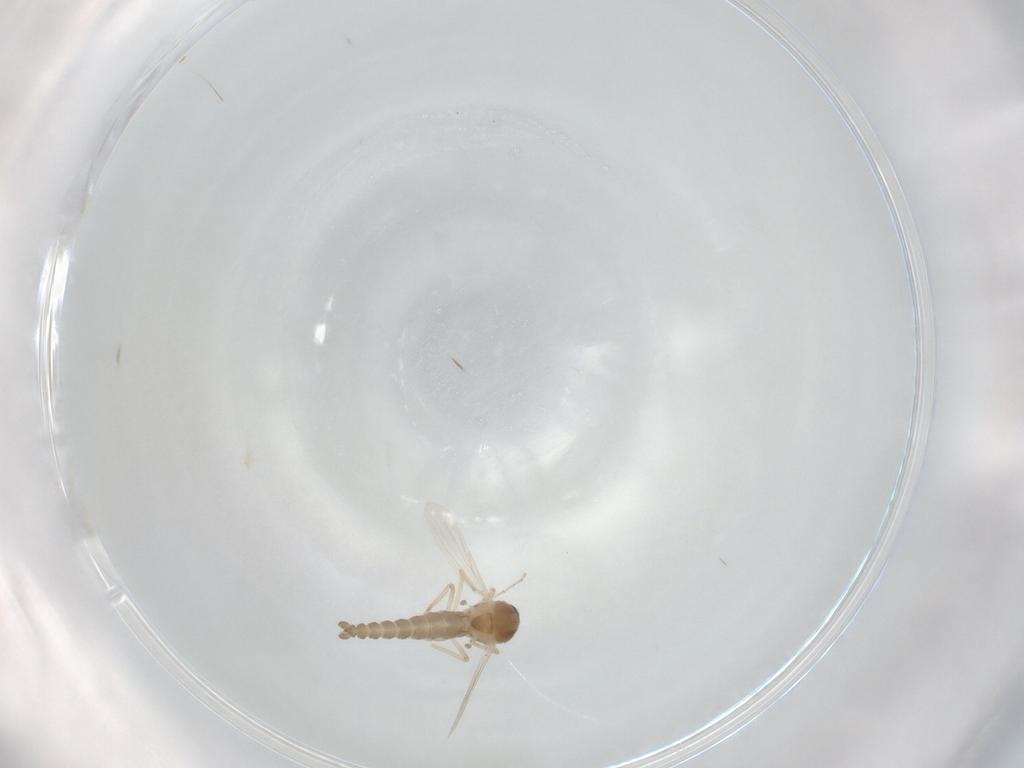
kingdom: Animalia
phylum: Arthropoda
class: Insecta
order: Diptera
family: Ceratopogonidae
